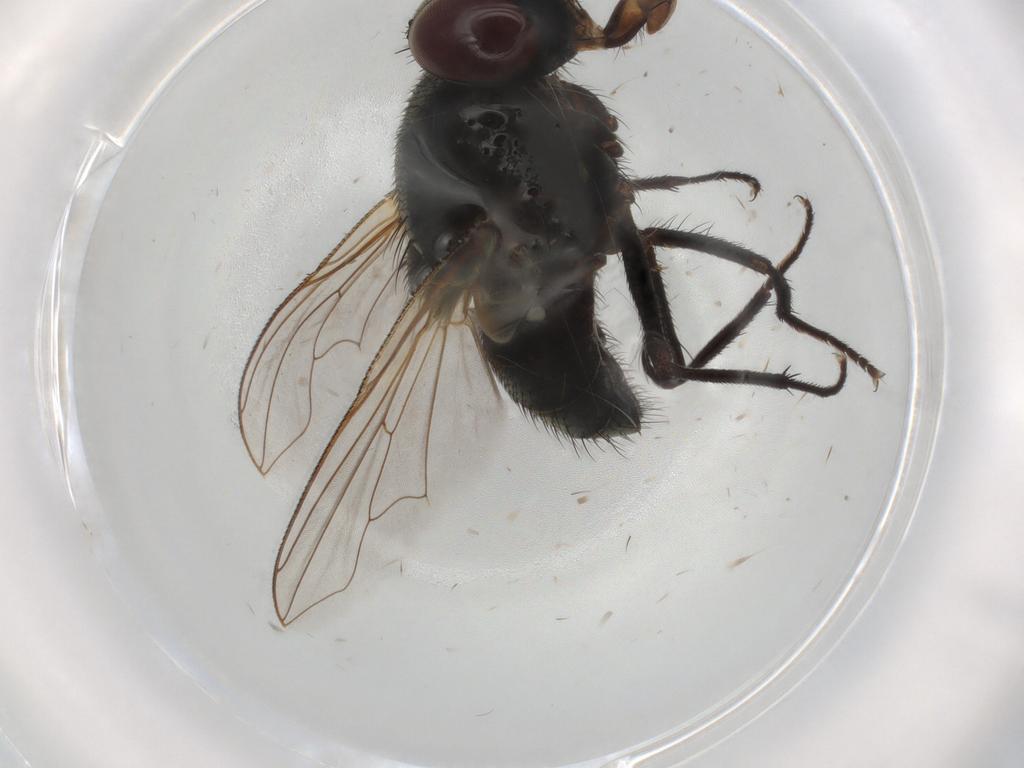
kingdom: Animalia
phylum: Arthropoda
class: Insecta
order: Diptera
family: Muscidae
